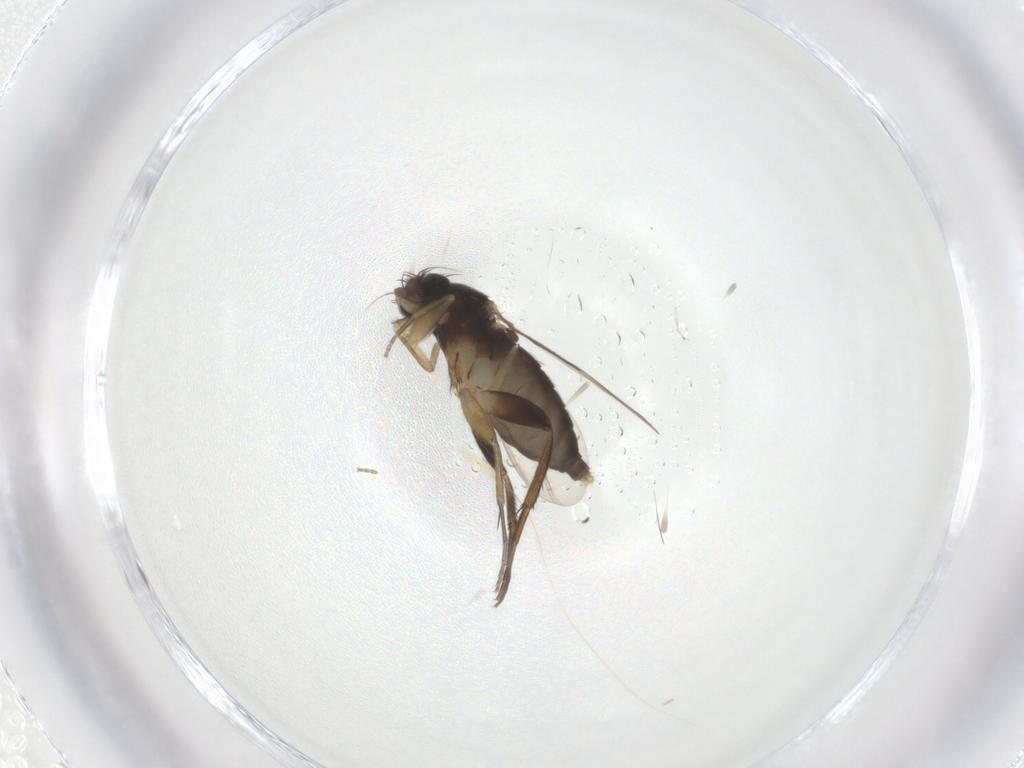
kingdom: Animalia
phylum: Arthropoda
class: Insecta
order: Diptera
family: Phoridae
